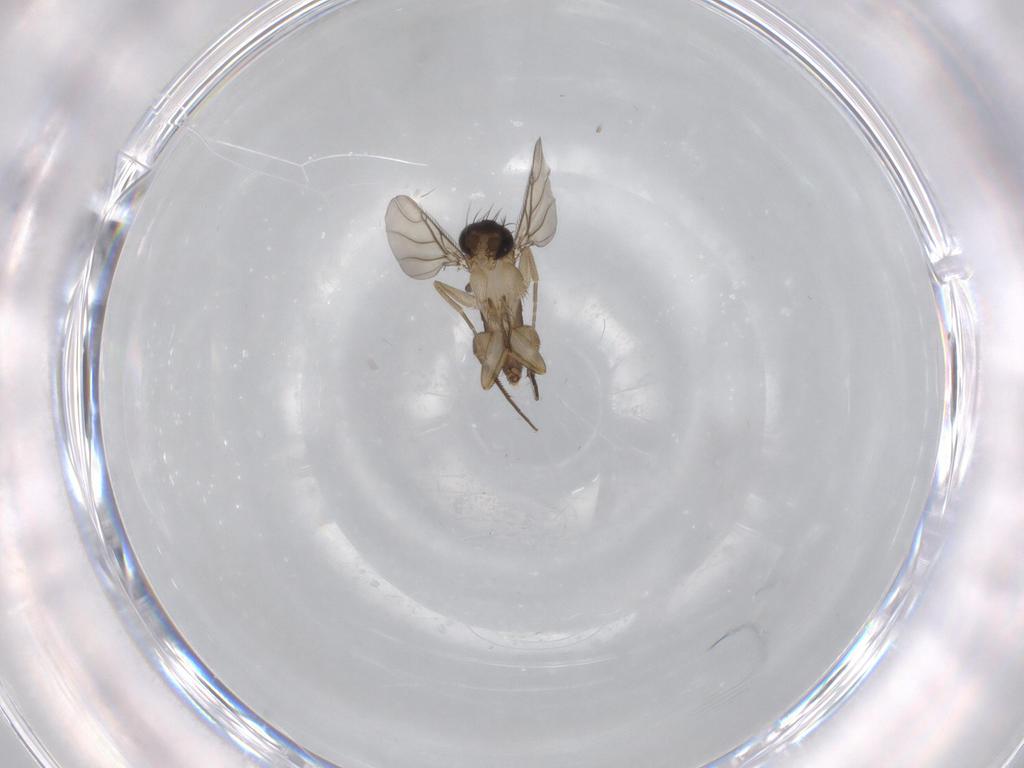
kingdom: Animalia
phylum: Arthropoda
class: Insecta
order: Diptera
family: Phoridae
